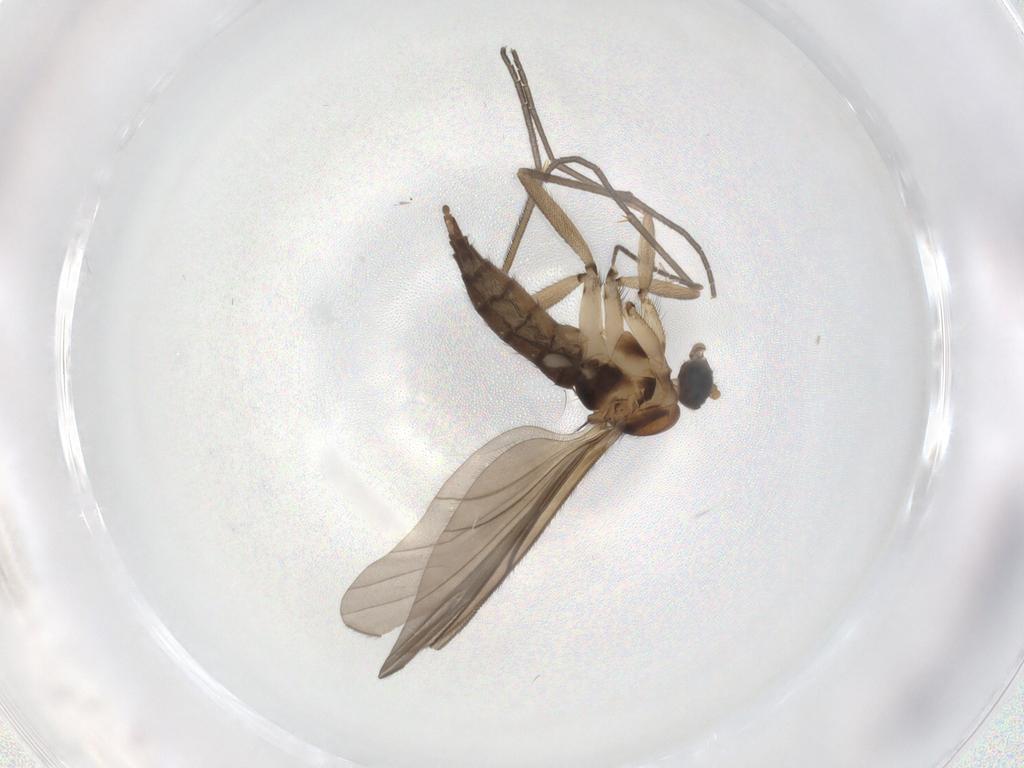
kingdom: Animalia
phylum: Arthropoda
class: Insecta
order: Diptera
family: Sciaridae
